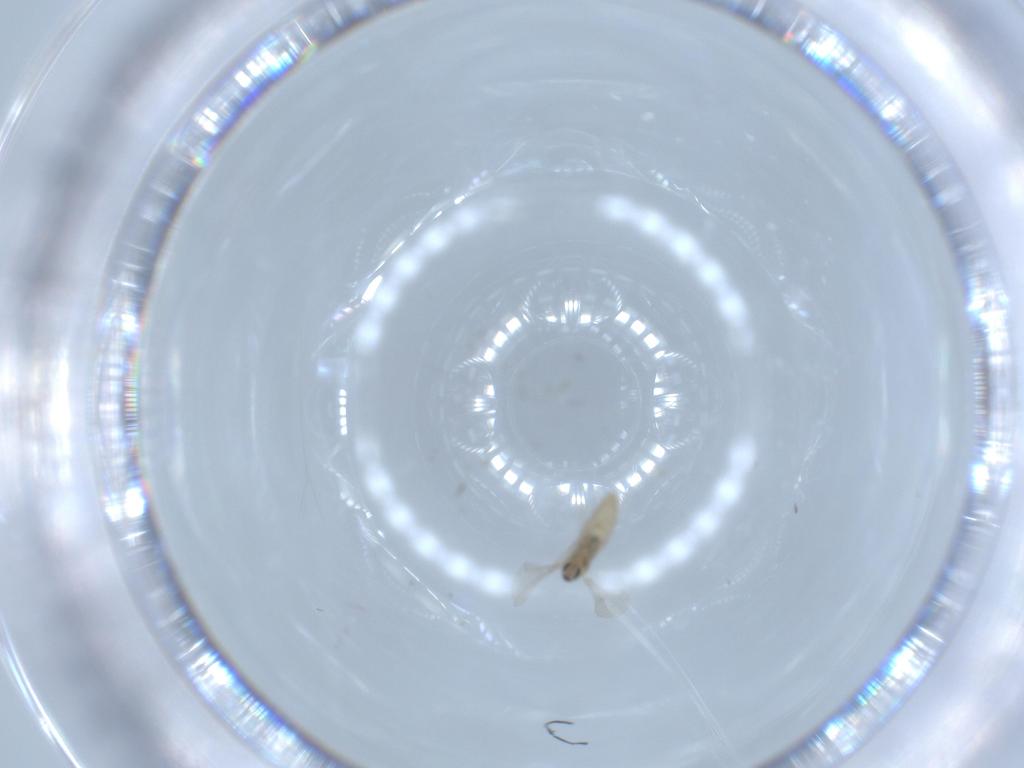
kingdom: Animalia
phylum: Arthropoda
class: Insecta
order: Diptera
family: Cecidomyiidae
